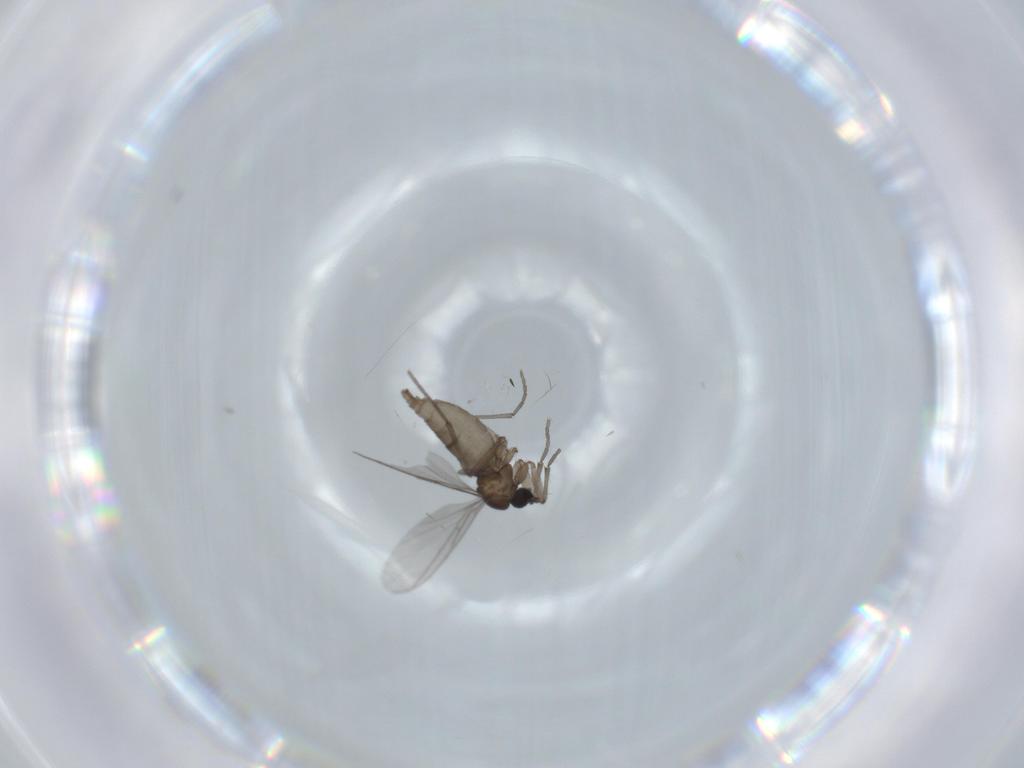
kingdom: Animalia
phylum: Arthropoda
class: Insecta
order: Diptera
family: Sciaridae
